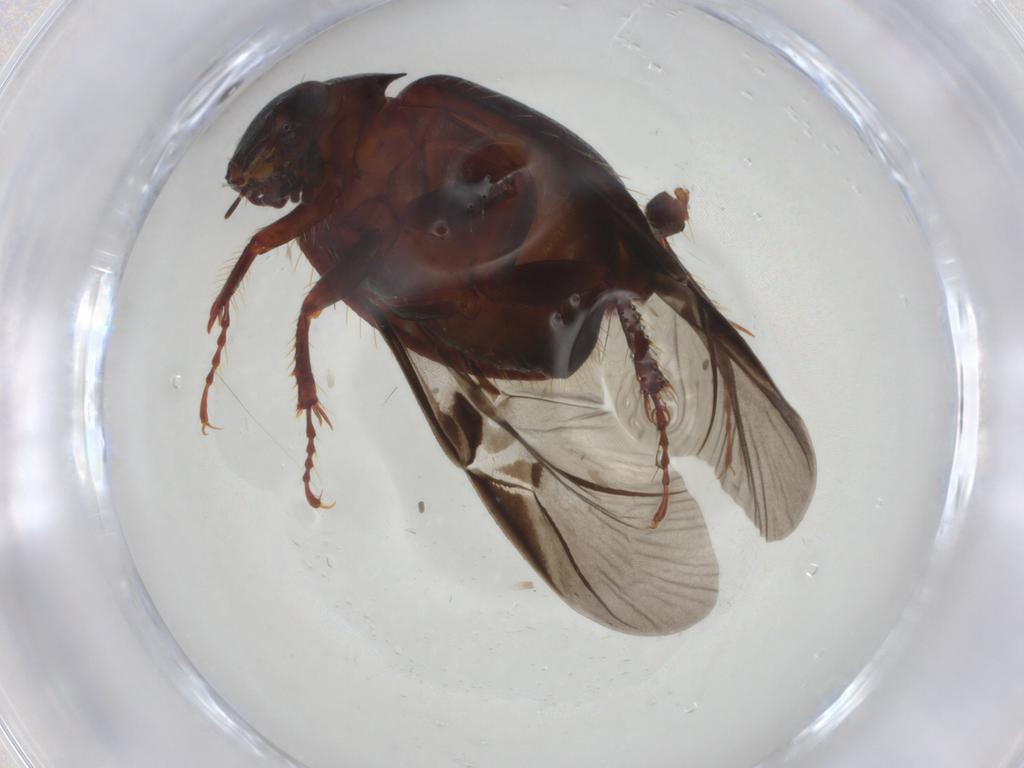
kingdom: Animalia
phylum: Arthropoda
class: Insecta
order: Coleoptera
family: Hybosoridae
